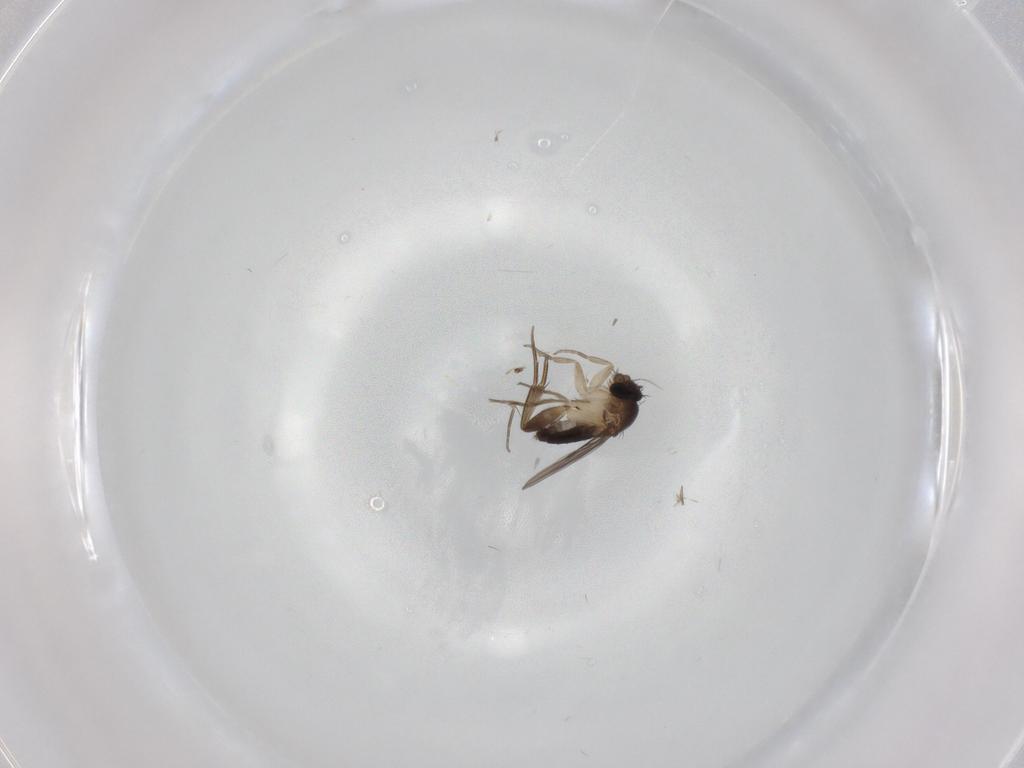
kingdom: Animalia
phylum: Arthropoda
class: Insecta
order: Diptera
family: Phoridae
